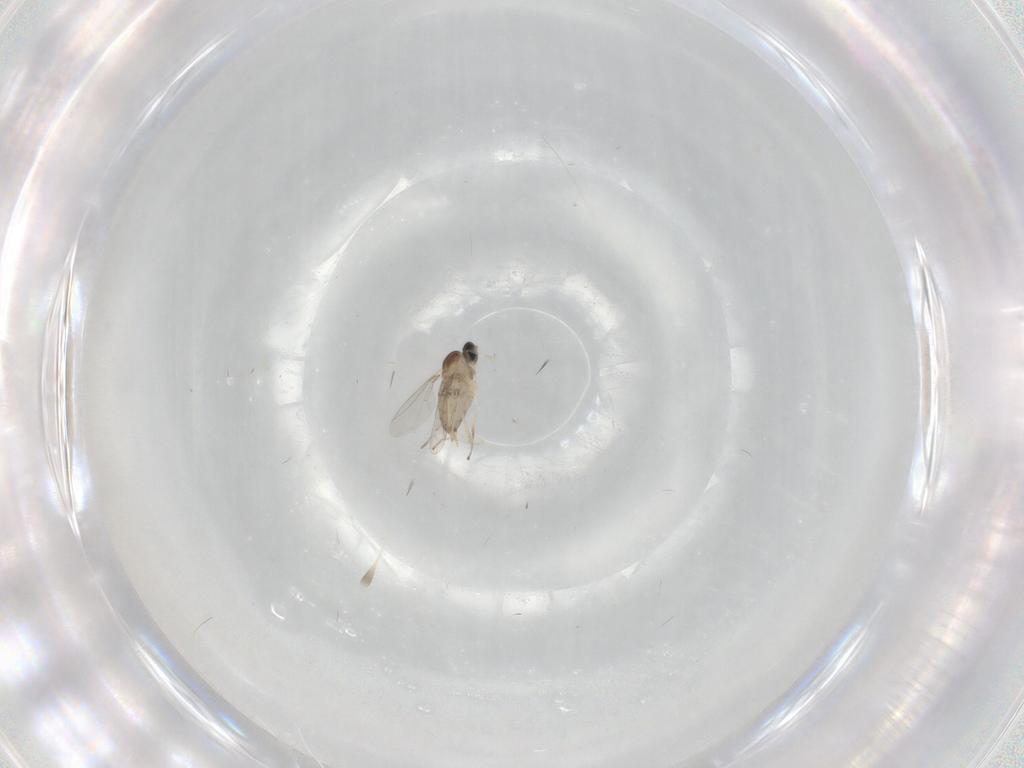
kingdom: Animalia
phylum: Arthropoda
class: Insecta
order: Diptera
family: Cecidomyiidae
